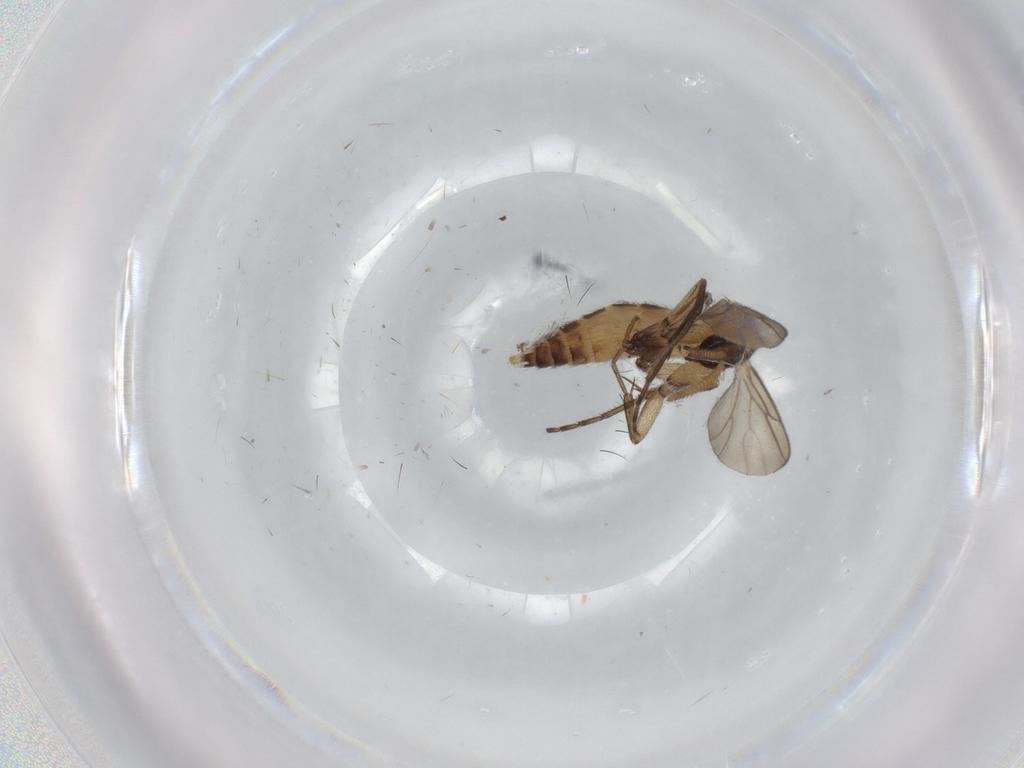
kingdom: Animalia
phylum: Arthropoda
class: Insecta
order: Diptera
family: Mycetophilidae
